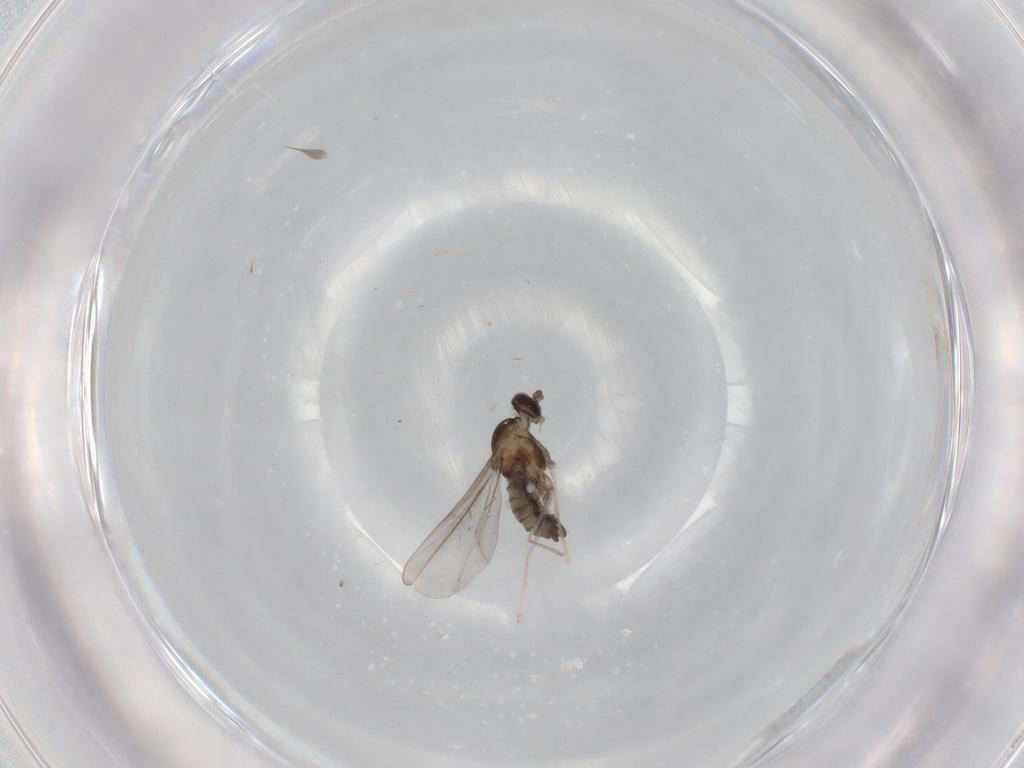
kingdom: Animalia
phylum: Arthropoda
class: Insecta
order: Diptera
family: Cecidomyiidae
